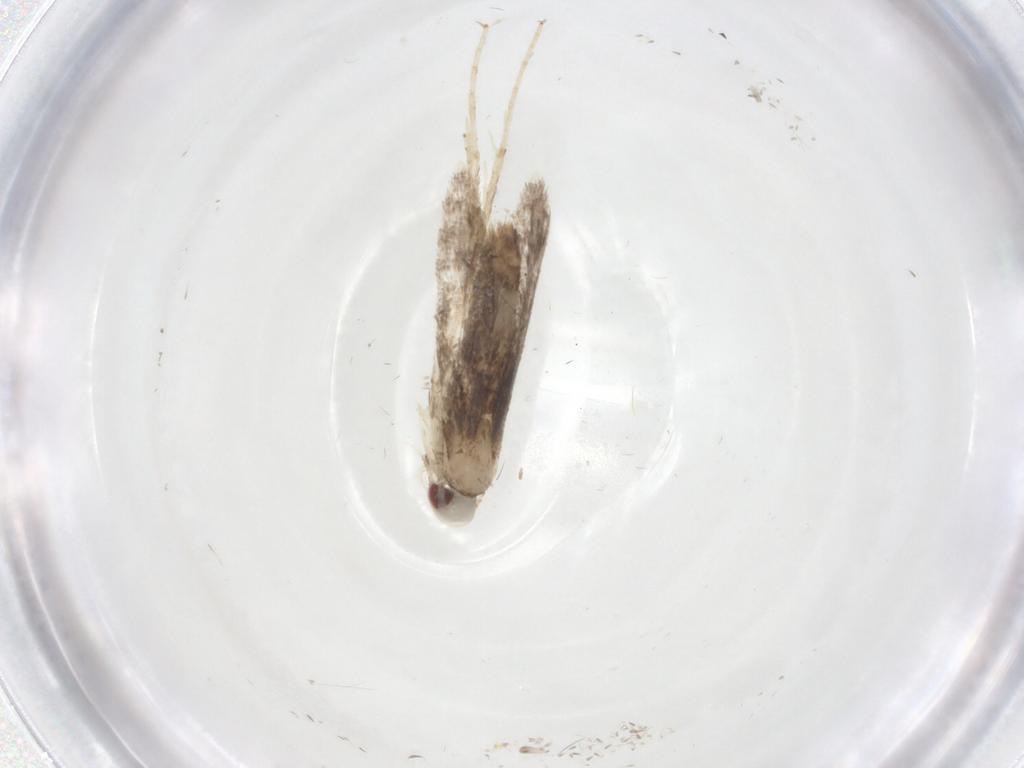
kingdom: Animalia
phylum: Arthropoda
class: Insecta
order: Lepidoptera
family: Gracillariidae
